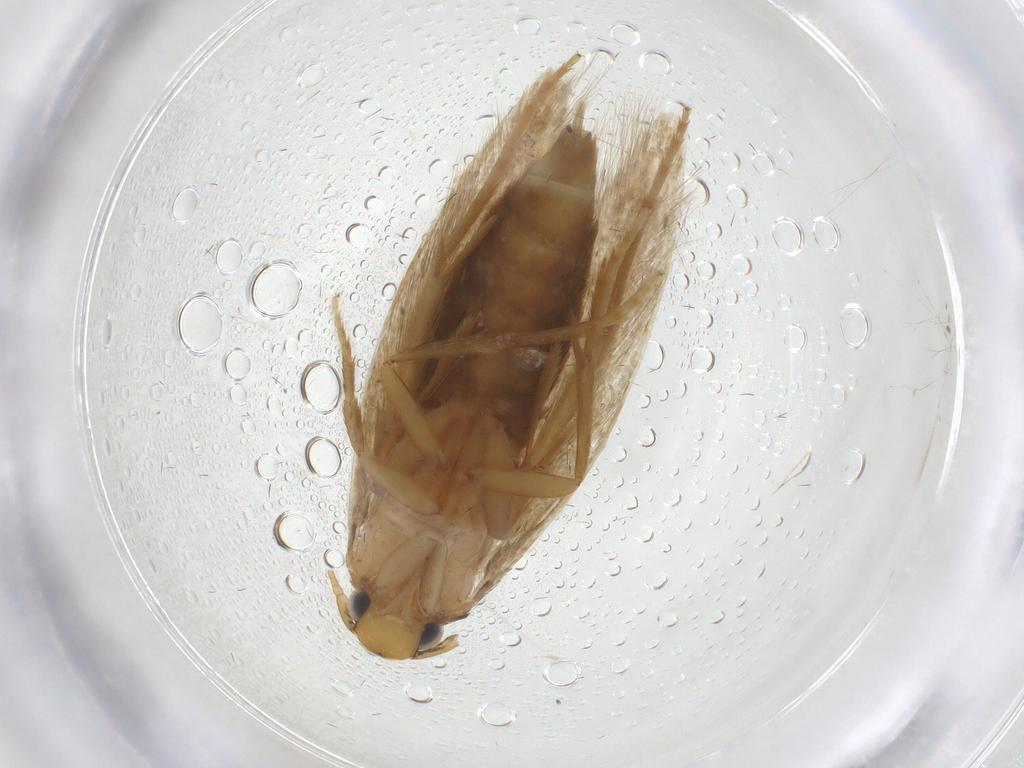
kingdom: Animalia
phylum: Arthropoda
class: Insecta
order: Lepidoptera
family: Tineidae
